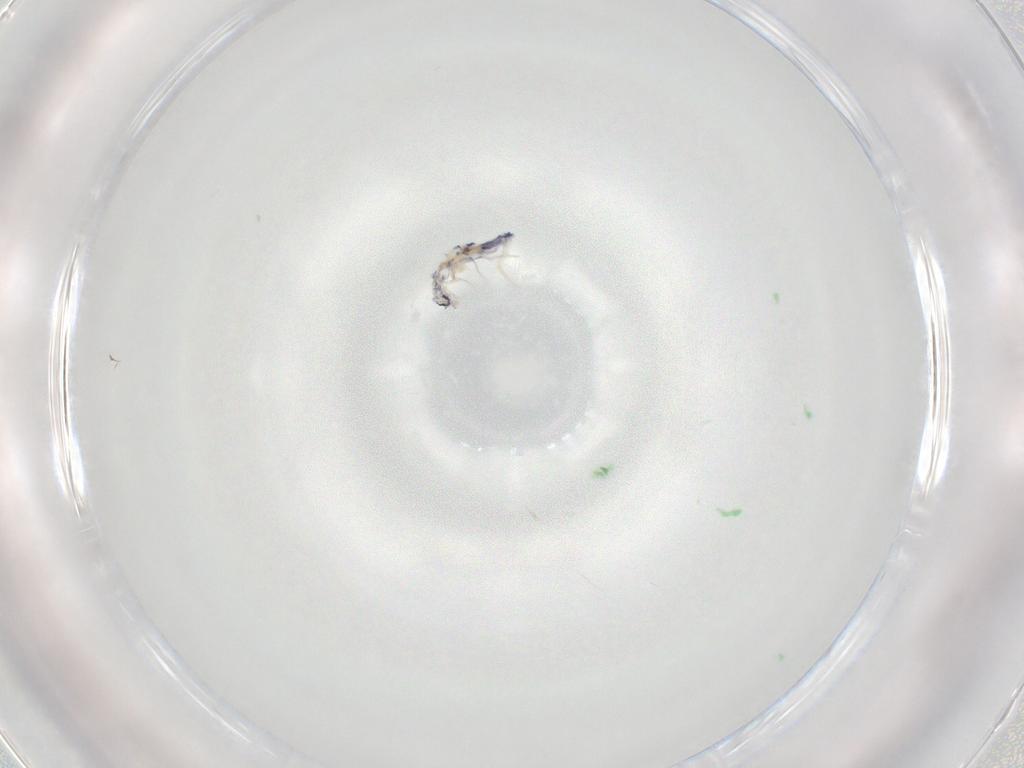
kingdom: Animalia
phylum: Arthropoda
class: Collembola
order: Entomobryomorpha
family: Entomobryidae
